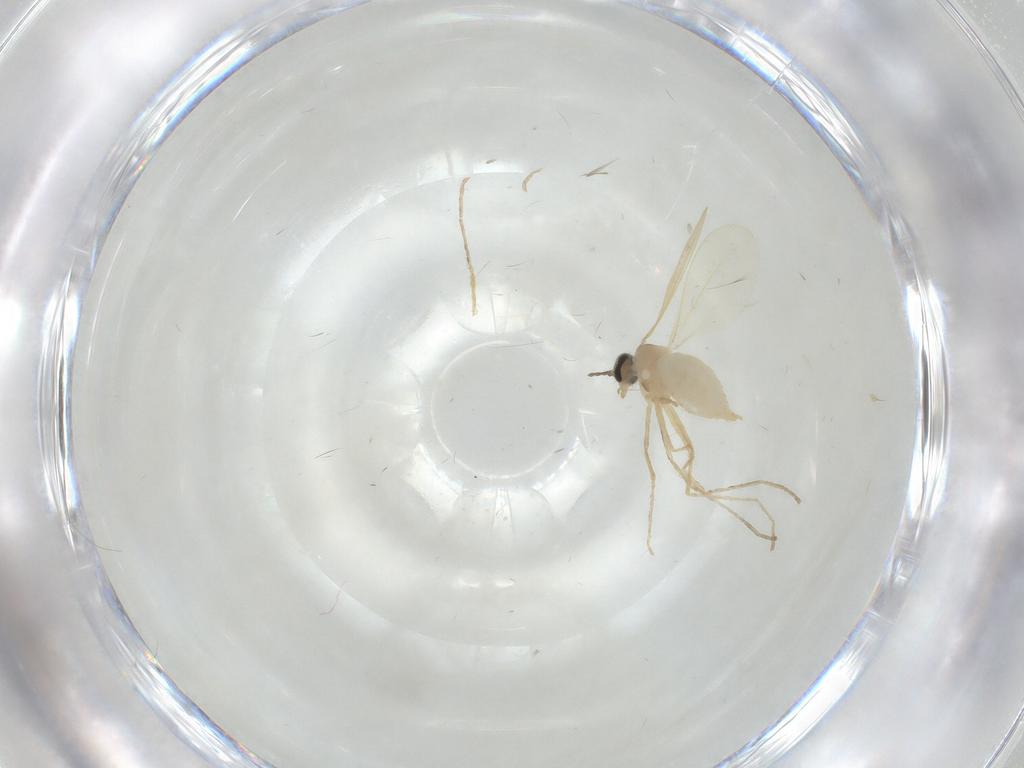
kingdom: Animalia
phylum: Arthropoda
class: Insecta
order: Diptera
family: Cecidomyiidae
